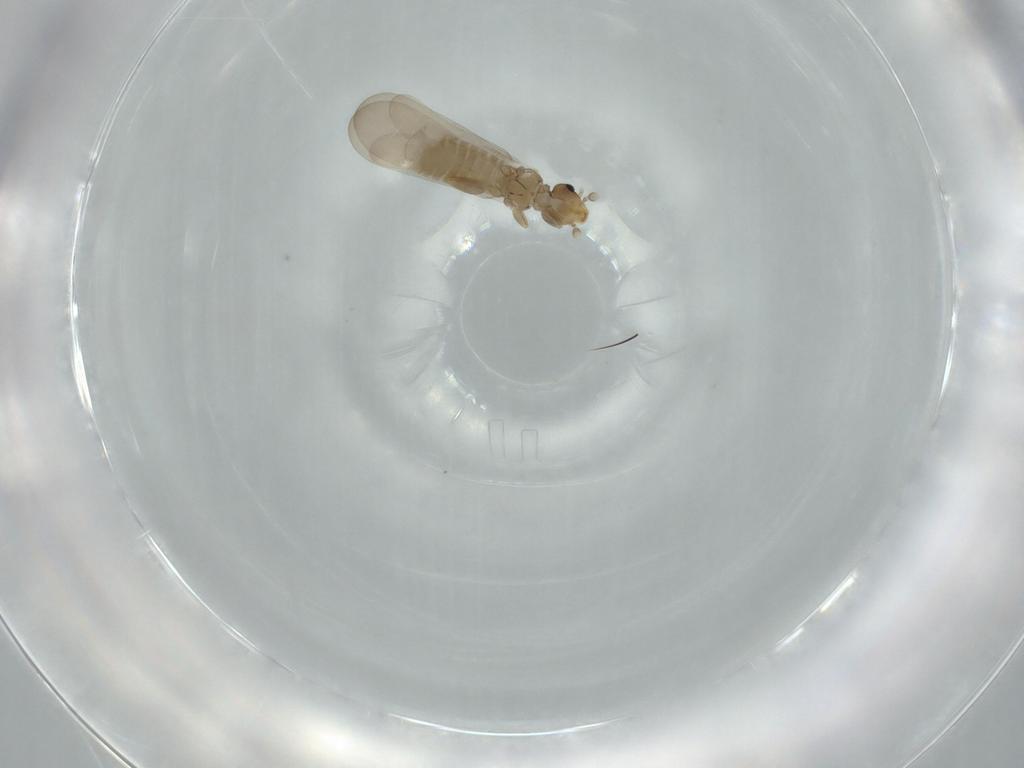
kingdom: Animalia
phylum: Arthropoda
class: Insecta
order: Psocodea
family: Liposcelididae
